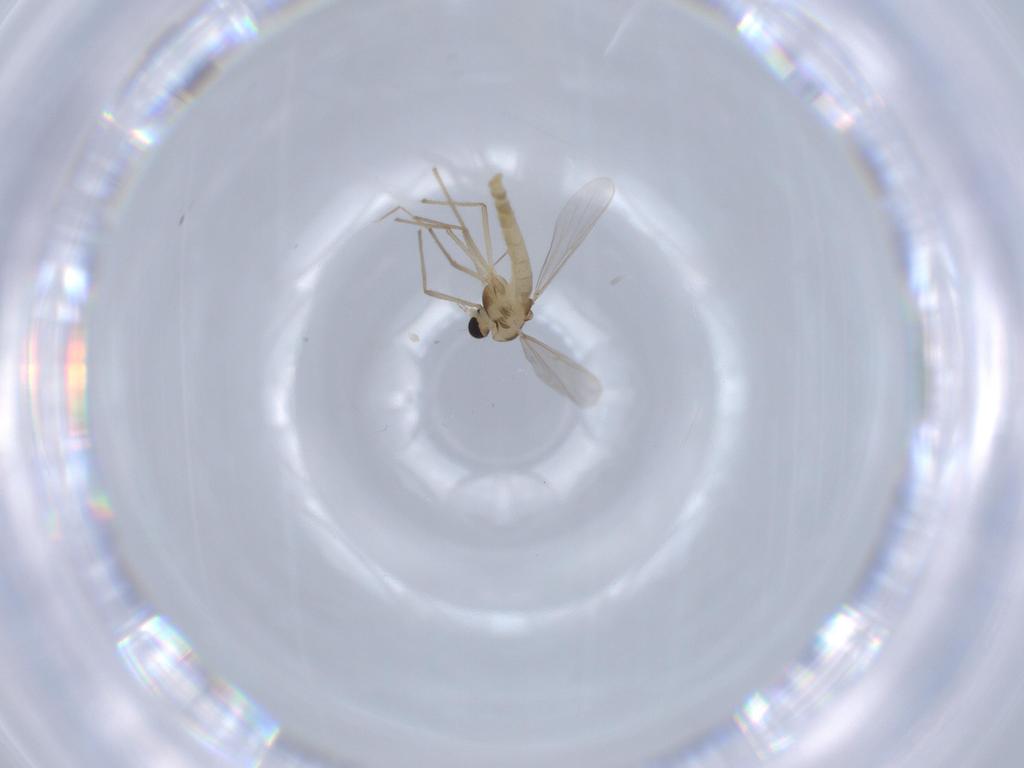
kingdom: Animalia
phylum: Arthropoda
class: Insecta
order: Diptera
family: Chironomidae
